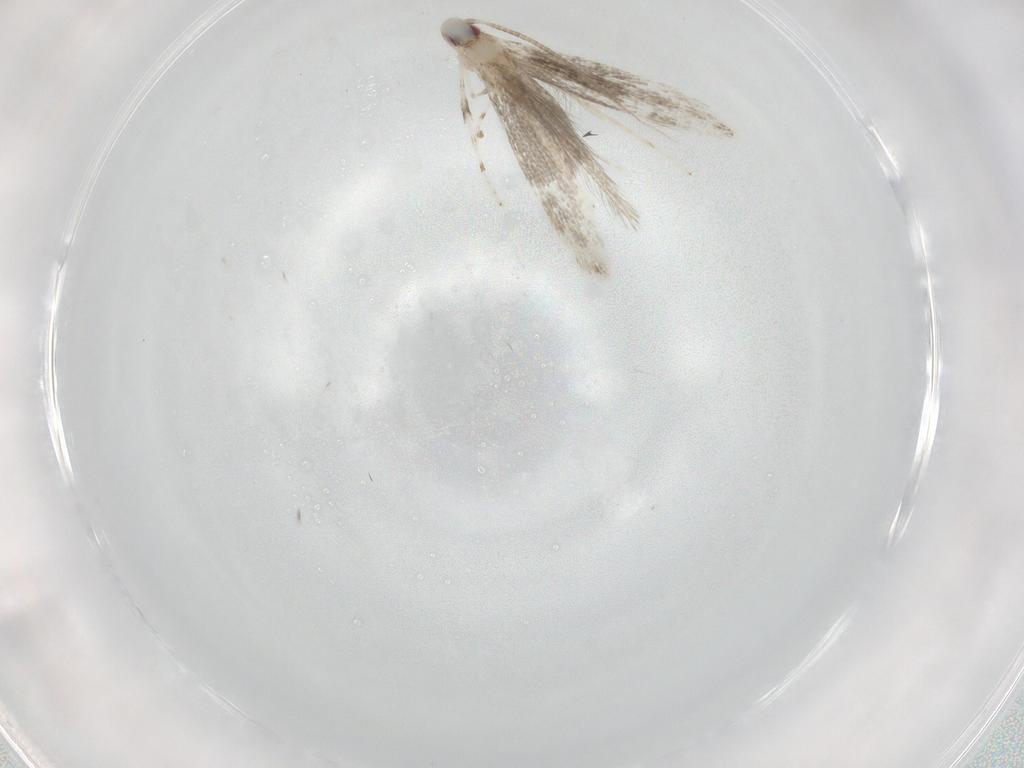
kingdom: Animalia
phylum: Arthropoda
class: Insecta
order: Lepidoptera
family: Gracillariidae
